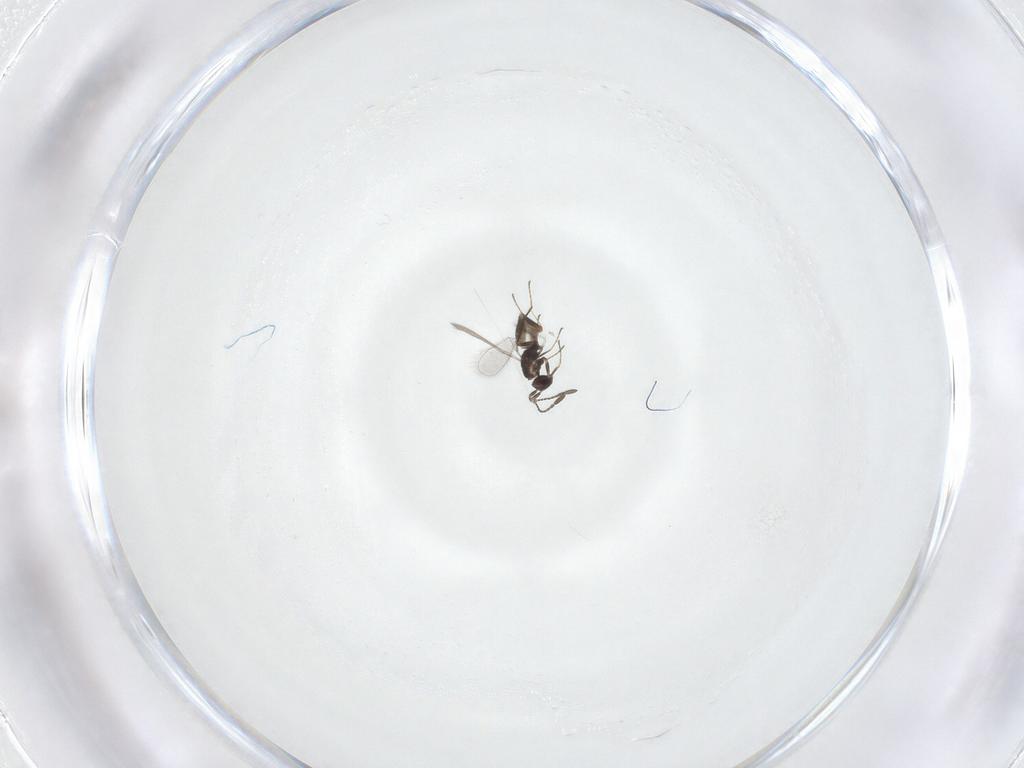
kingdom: Animalia
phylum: Arthropoda
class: Insecta
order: Hymenoptera
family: Mymaridae
